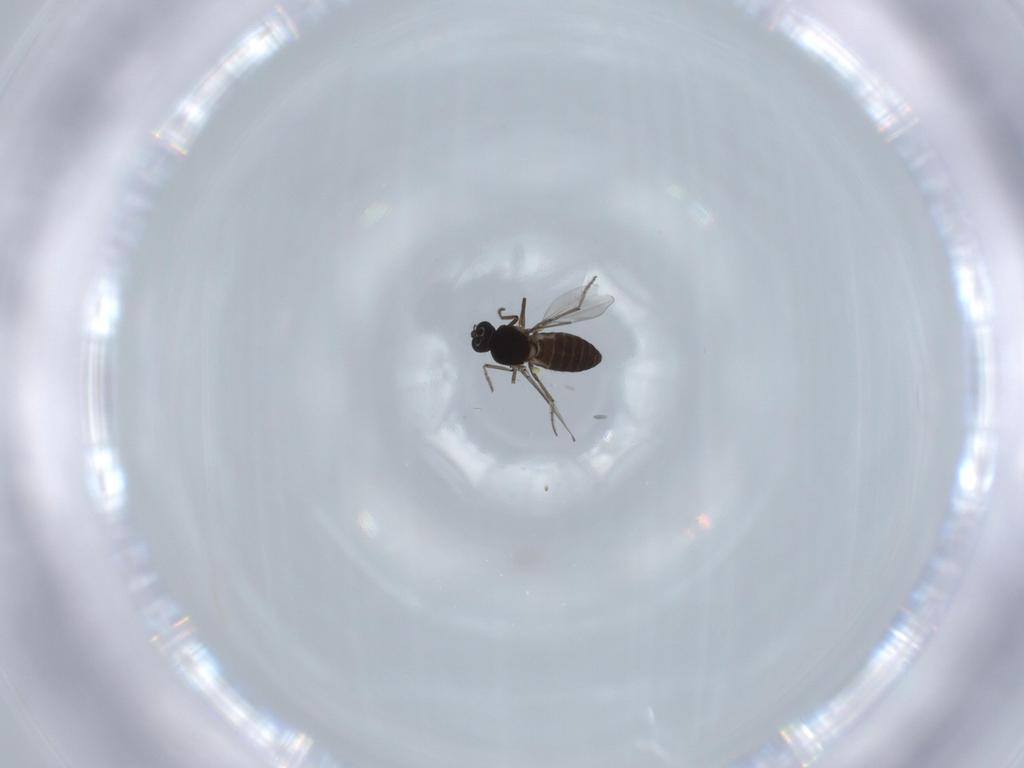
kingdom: Animalia
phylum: Arthropoda
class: Insecta
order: Diptera
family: Ceratopogonidae
